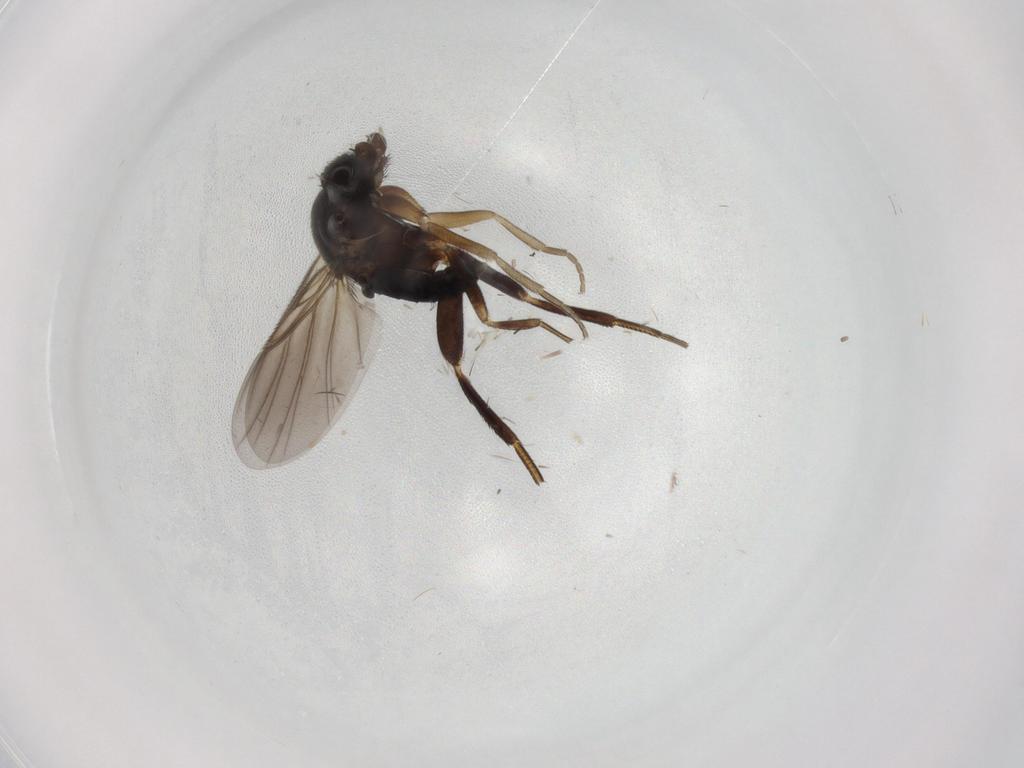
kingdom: Animalia
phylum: Arthropoda
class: Insecta
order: Diptera
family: Phoridae
